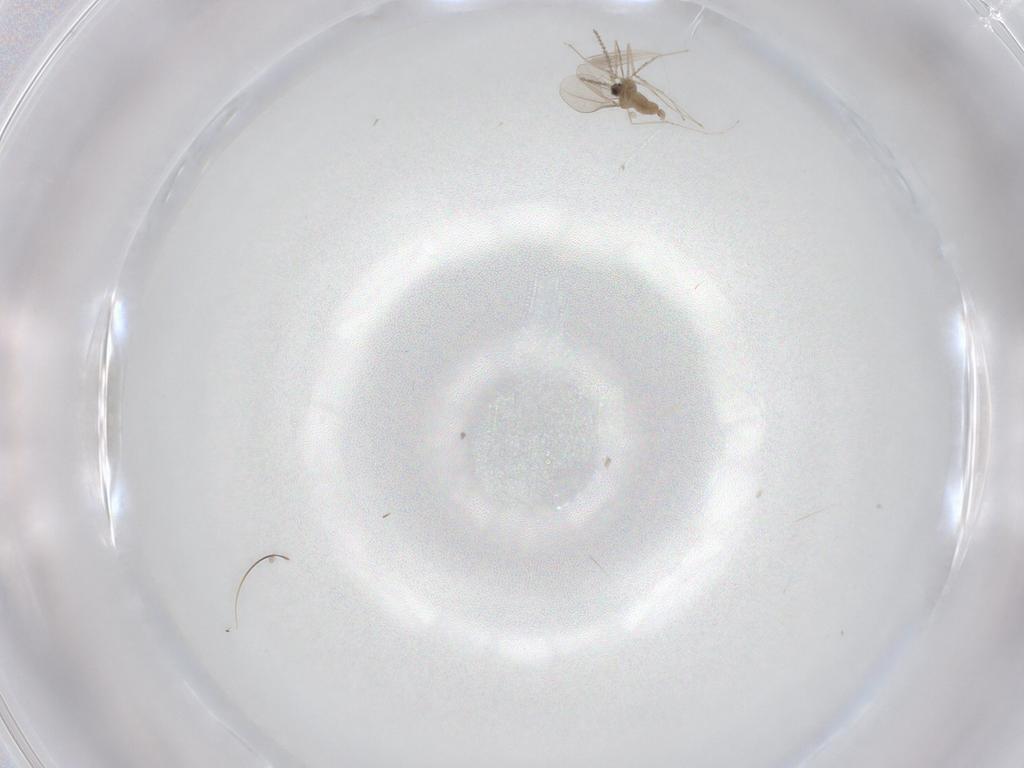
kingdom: Animalia
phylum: Arthropoda
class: Insecta
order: Diptera
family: Cecidomyiidae
